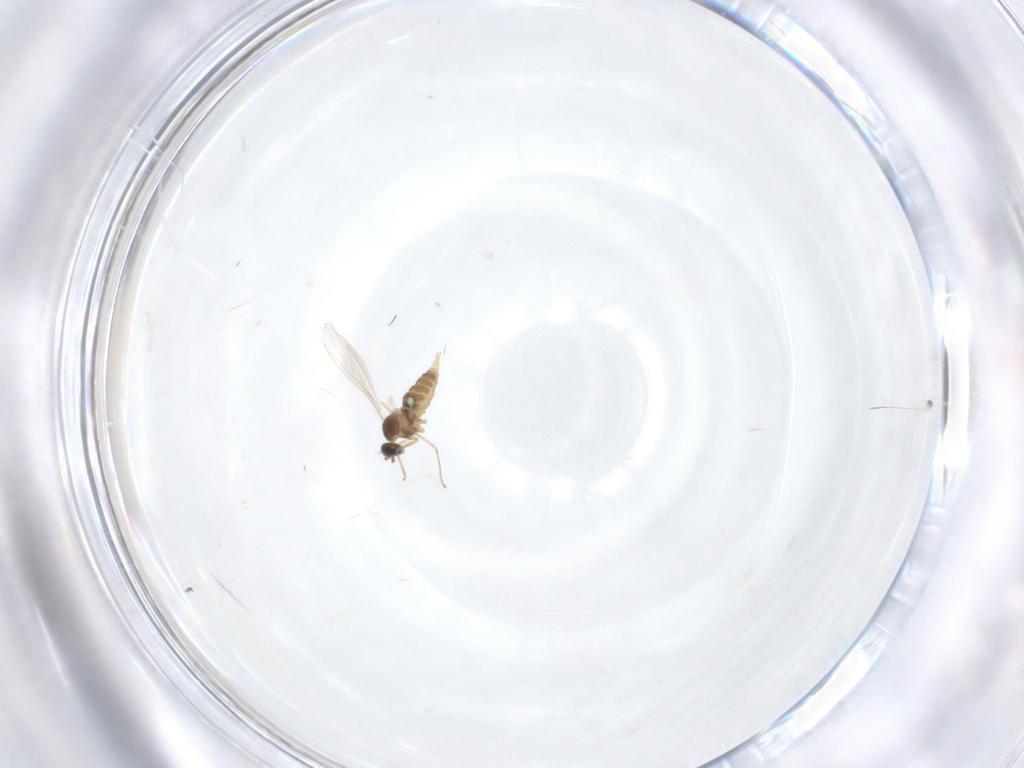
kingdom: Animalia
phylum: Arthropoda
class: Insecta
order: Diptera
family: Cecidomyiidae
